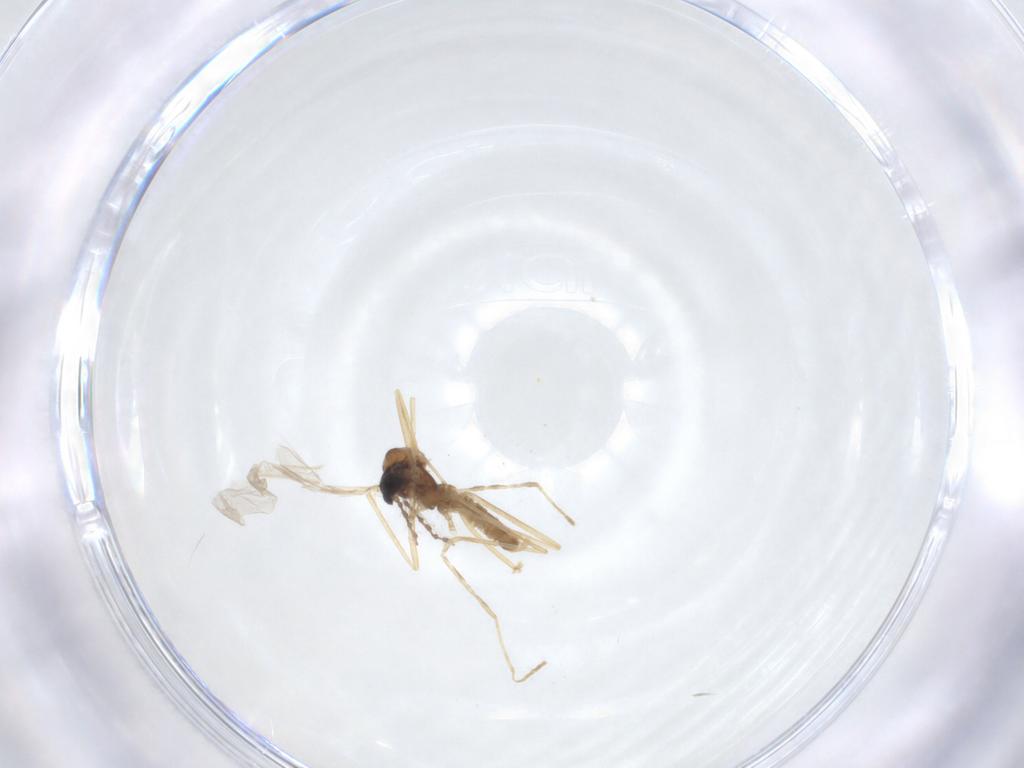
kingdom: Animalia
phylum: Arthropoda
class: Insecta
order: Diptera
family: Cecidomyiidae
